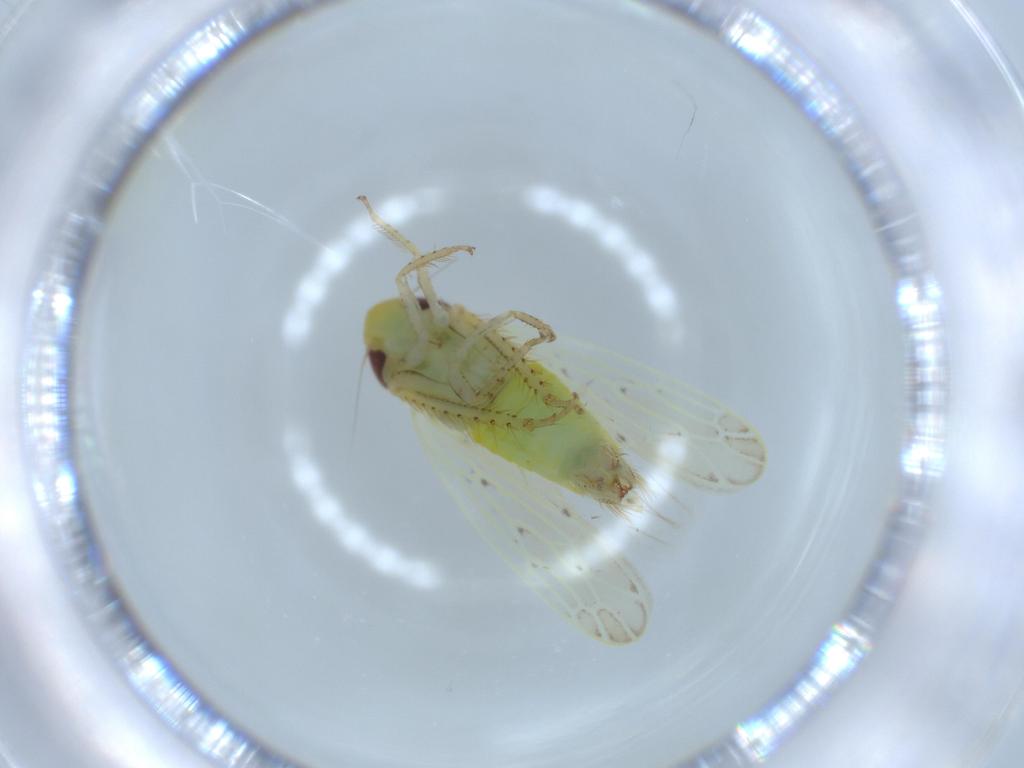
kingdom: Animalia
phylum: Arthropoda
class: Insecta
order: Hemiptera
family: Cicadellidae
